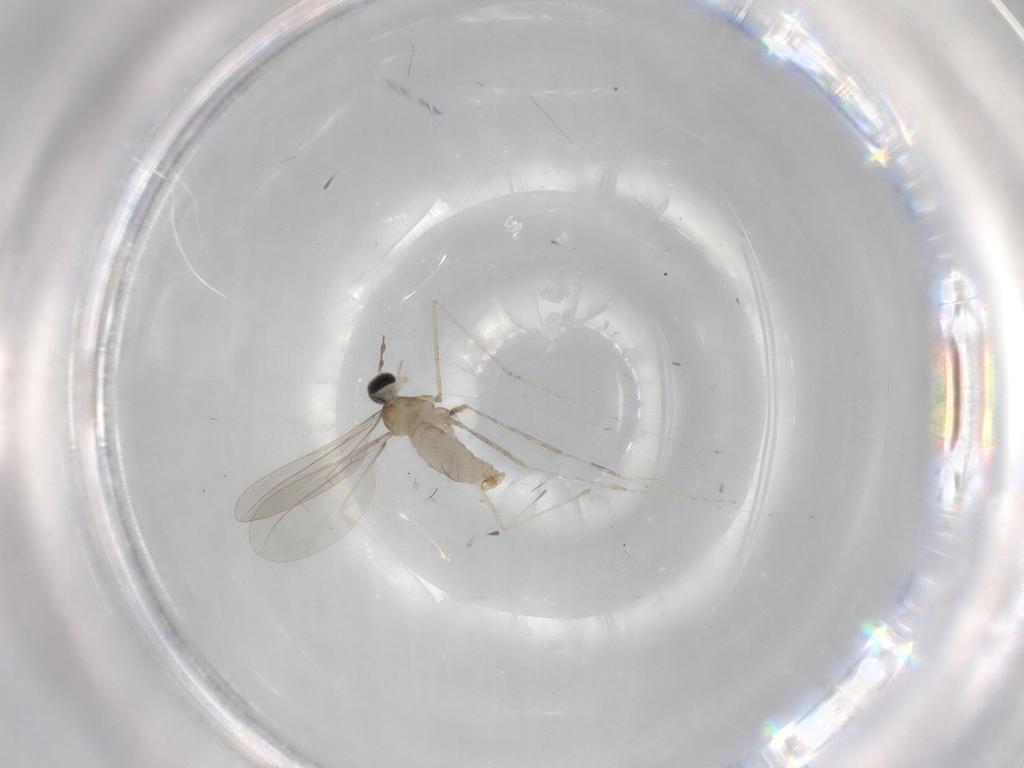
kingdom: Animalia
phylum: Arthropoda
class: Insecta
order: Diptera
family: Cecidomyiidae
